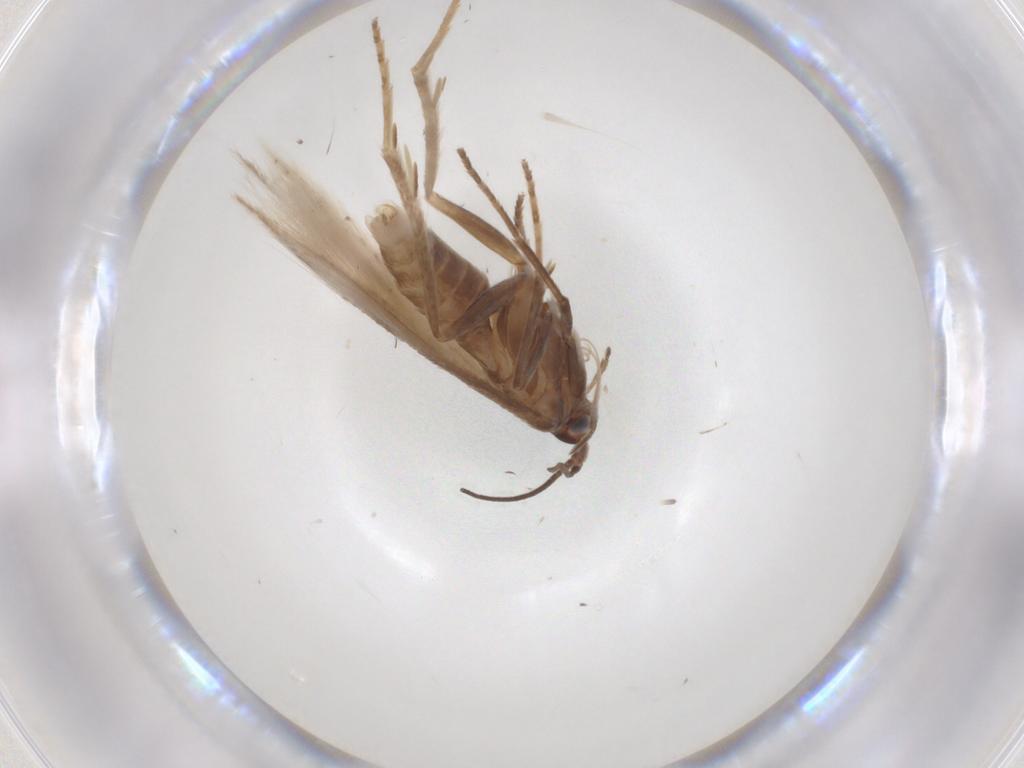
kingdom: Animalia
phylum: Arthropoda
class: Insecta
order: Lepidoptera
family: Coleophoridae
